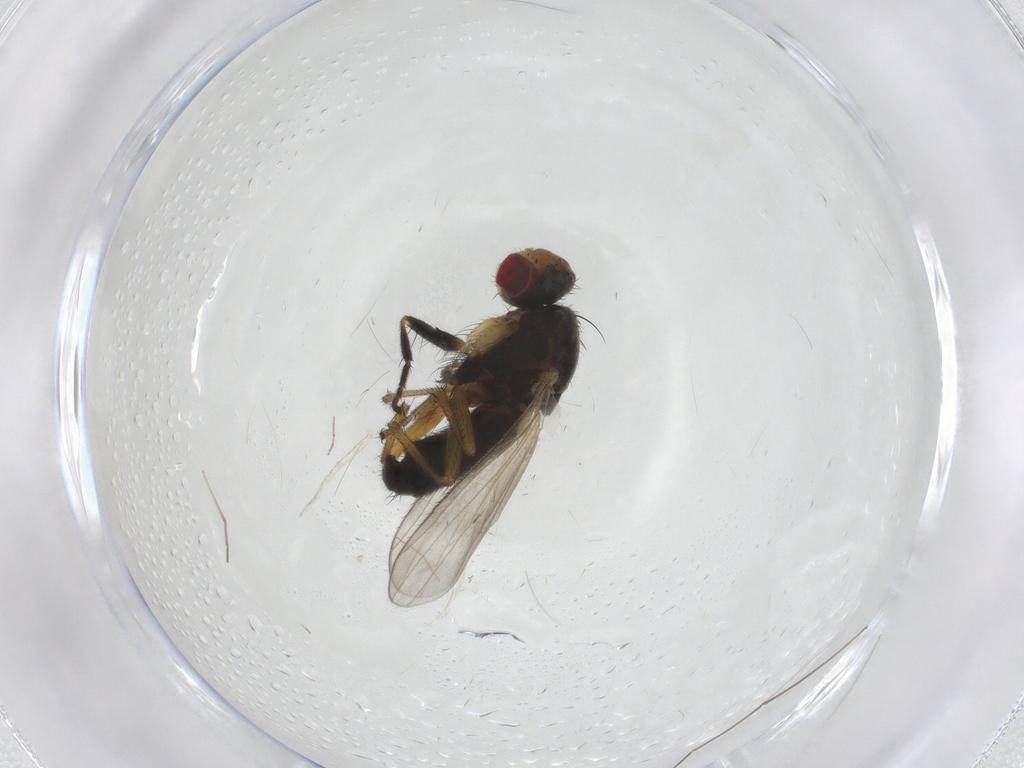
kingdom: Animalia
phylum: Arthropoda
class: Insecta
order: Diptera
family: Heleomyzidae
